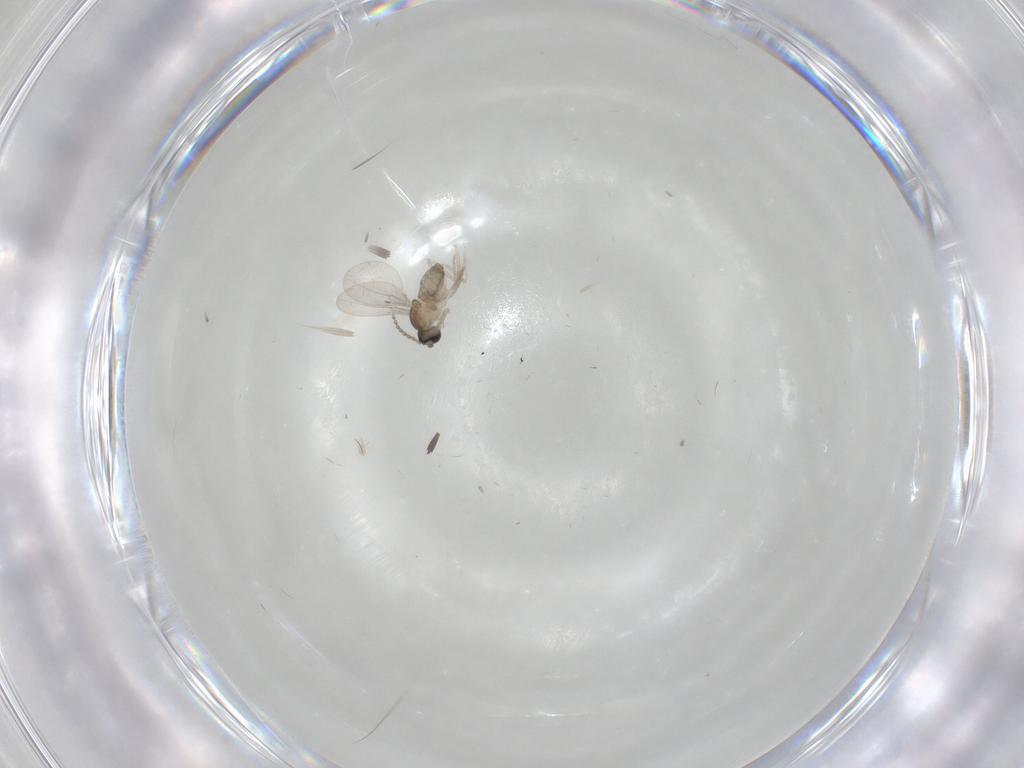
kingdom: Animalia
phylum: Arthropoda
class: Insecta
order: Diptera
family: Cecidomyiidae
